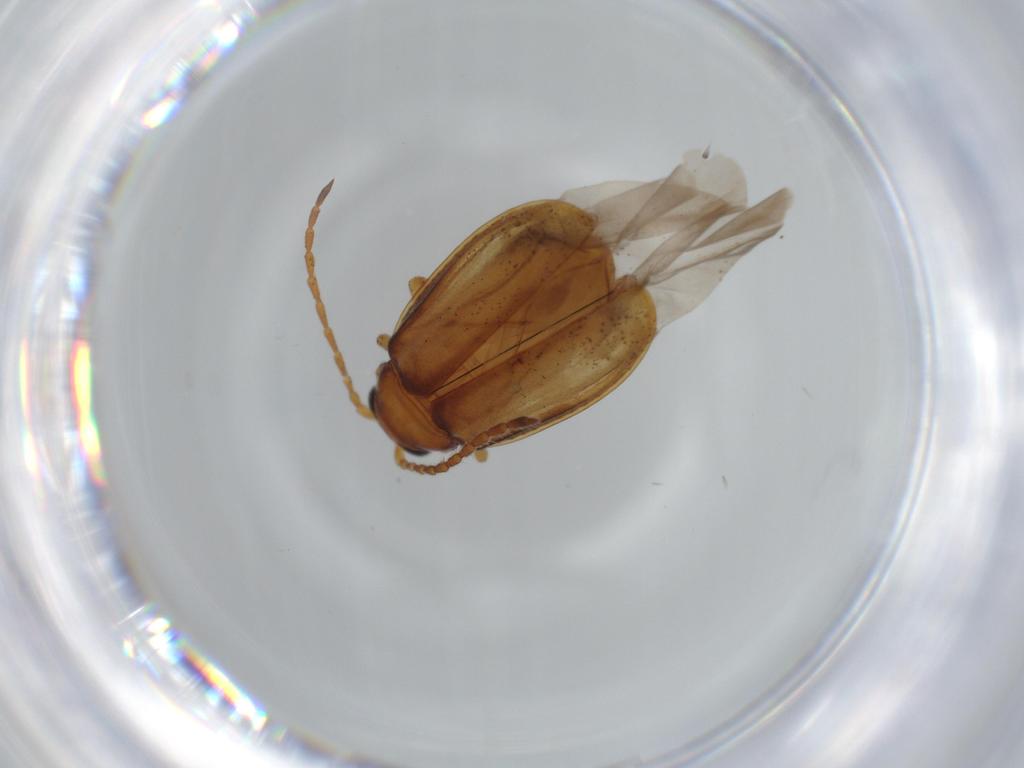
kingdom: Animalia
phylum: Arthropoda
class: Insecta
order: Coleoptera
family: Chrysomelidae
